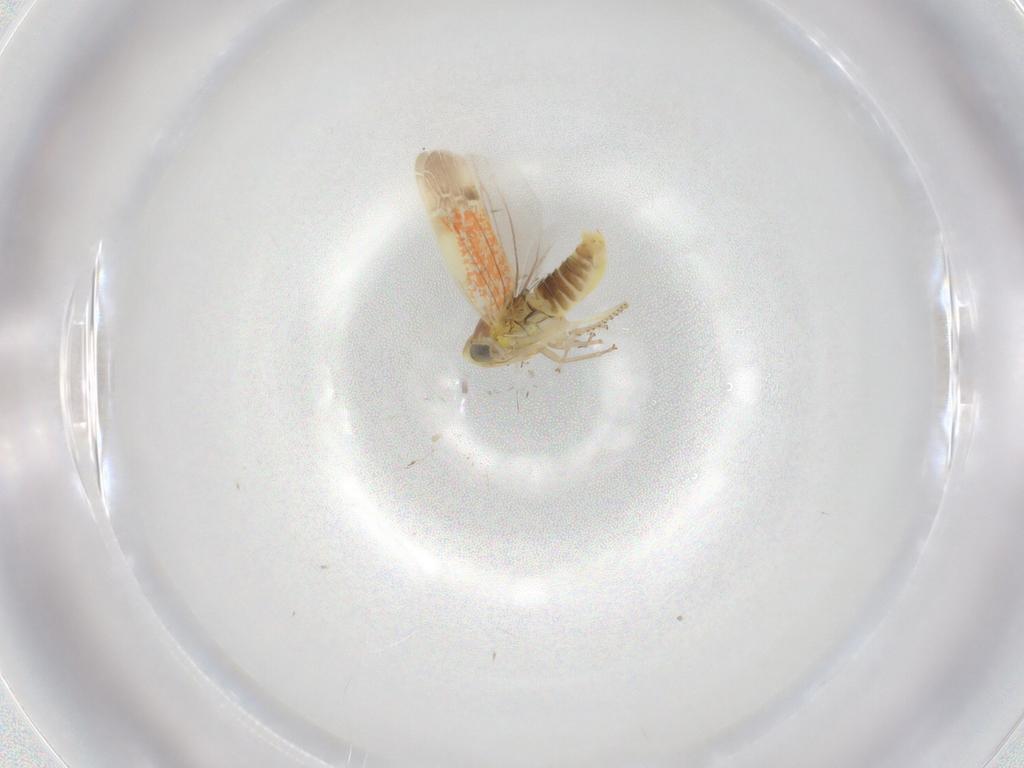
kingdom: Animalia
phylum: Arthropoda
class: Insecta
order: Hemiptera
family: Cicadellidae
